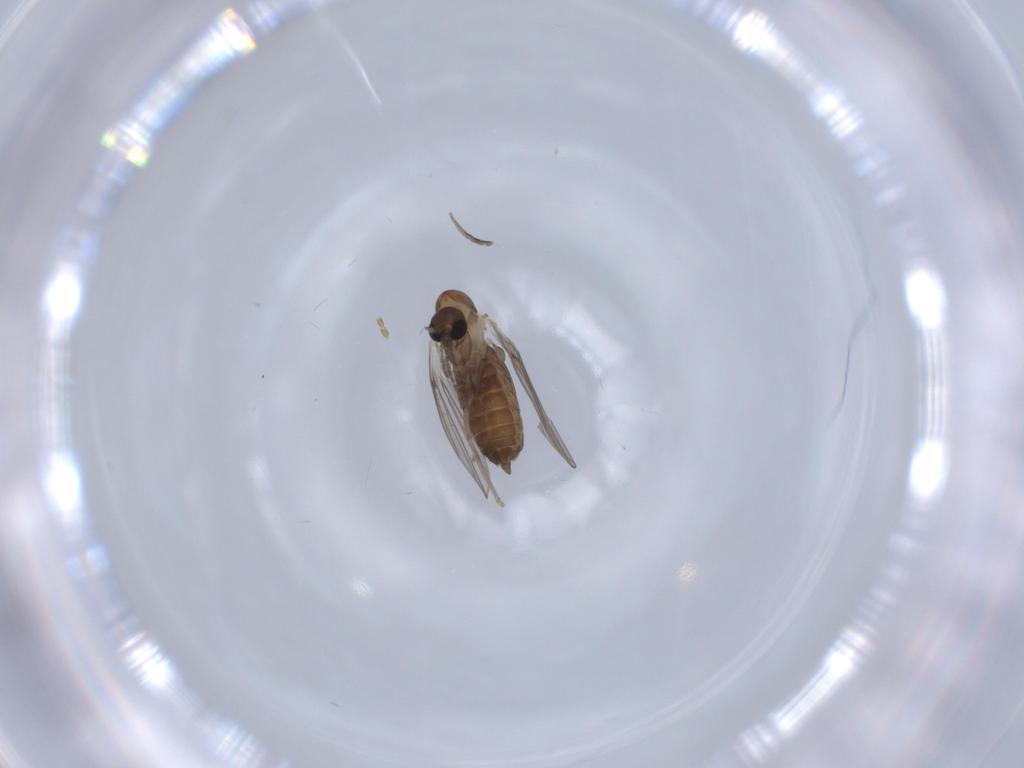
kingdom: Animalia
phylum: Arthropoda
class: Insecta
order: Diptera
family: Psychodidae
